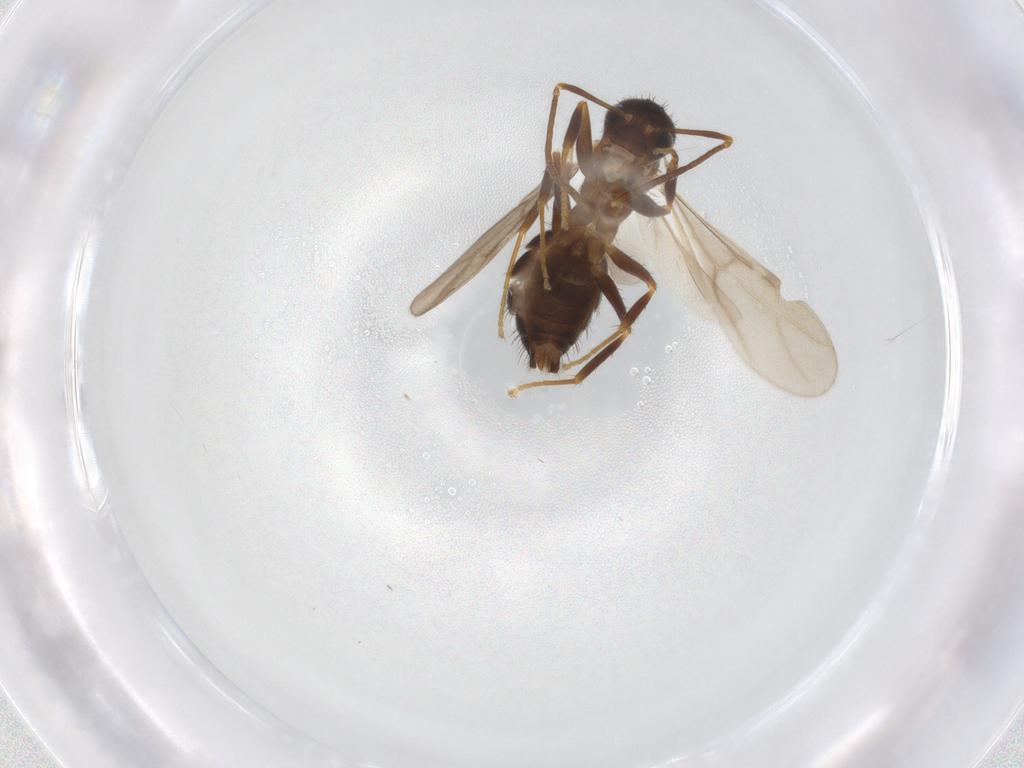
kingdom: Animalia
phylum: Arthropoda
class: Insecta
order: Hymenoptera
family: Formicidae
